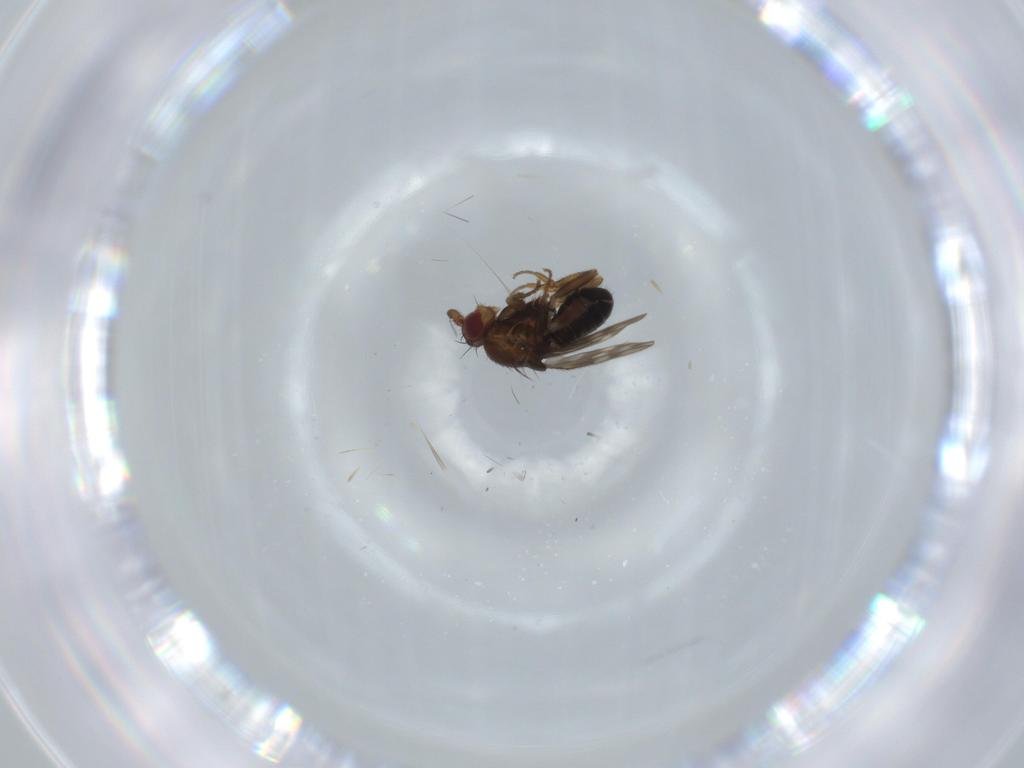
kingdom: Animalia
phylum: Arthropoda
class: Insecta
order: Diptera
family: Sphaeroceridae
